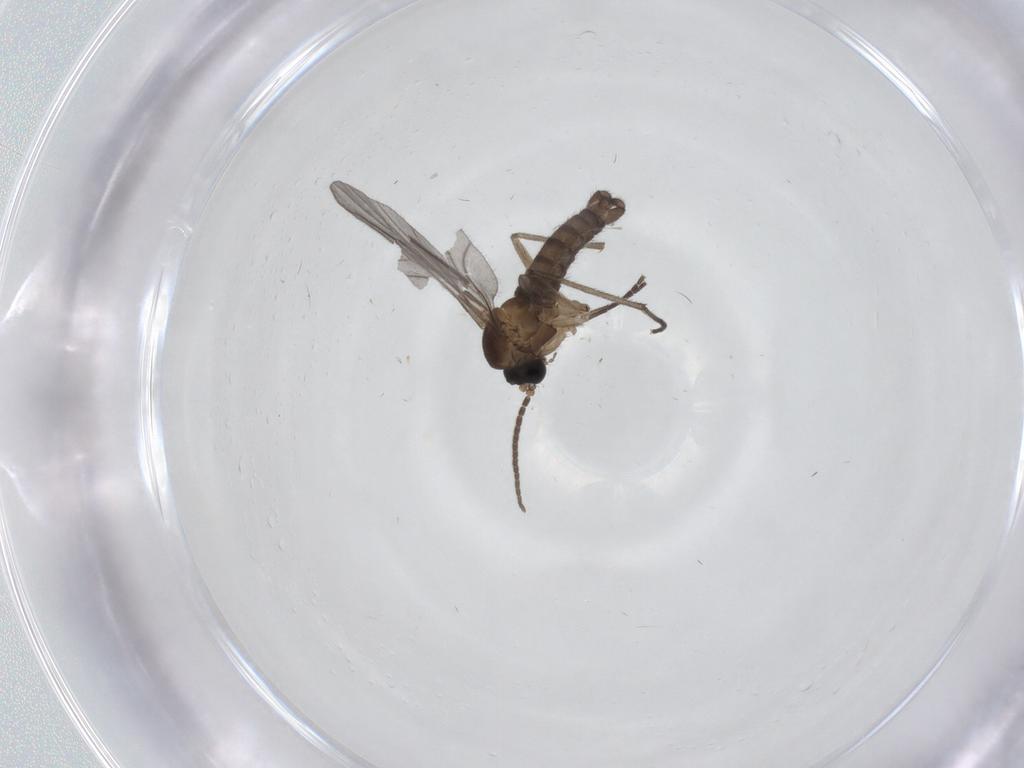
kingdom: Animalia
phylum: Arthropoda
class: Insecta
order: Diptera
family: Sciaridae
